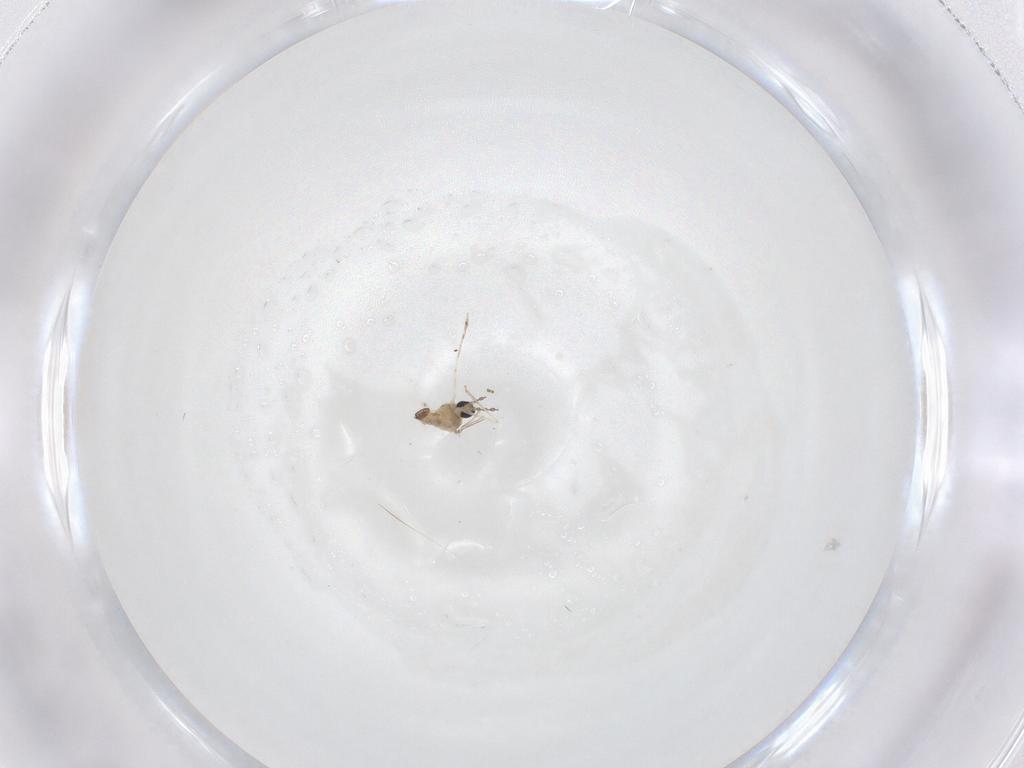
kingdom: Animalia
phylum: Arthropoda
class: Insecta
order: Diptera
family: Cecidomyiidae
